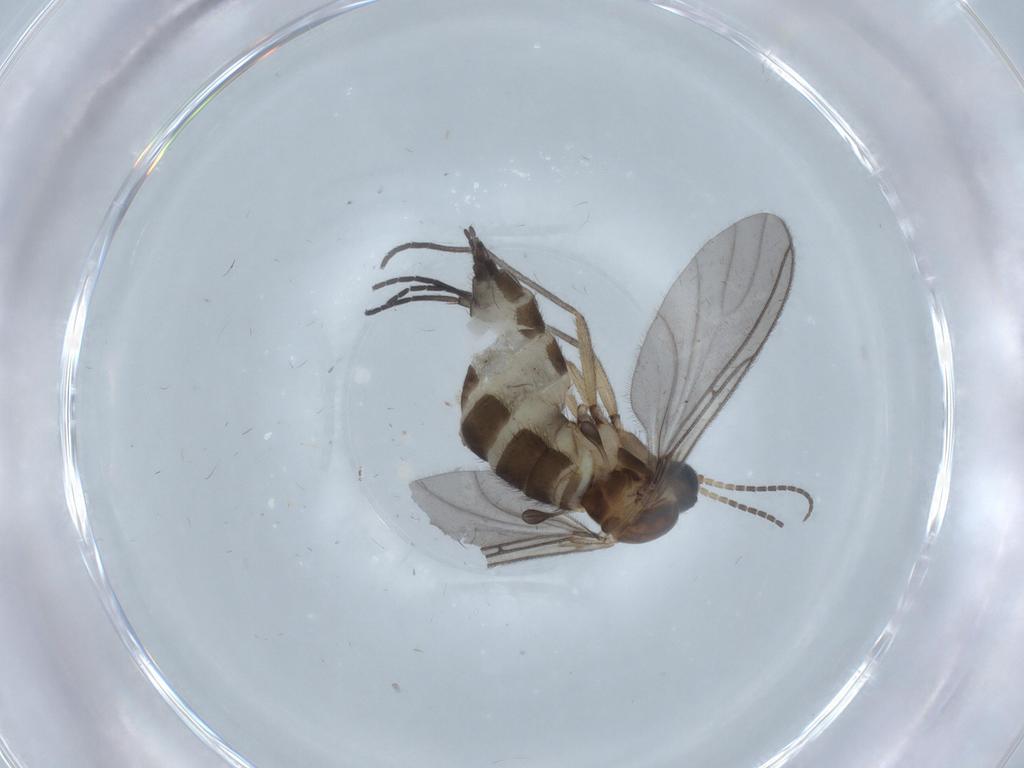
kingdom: Animalia
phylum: Arthropoda
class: Insecta
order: Diptera
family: Sciaridae
